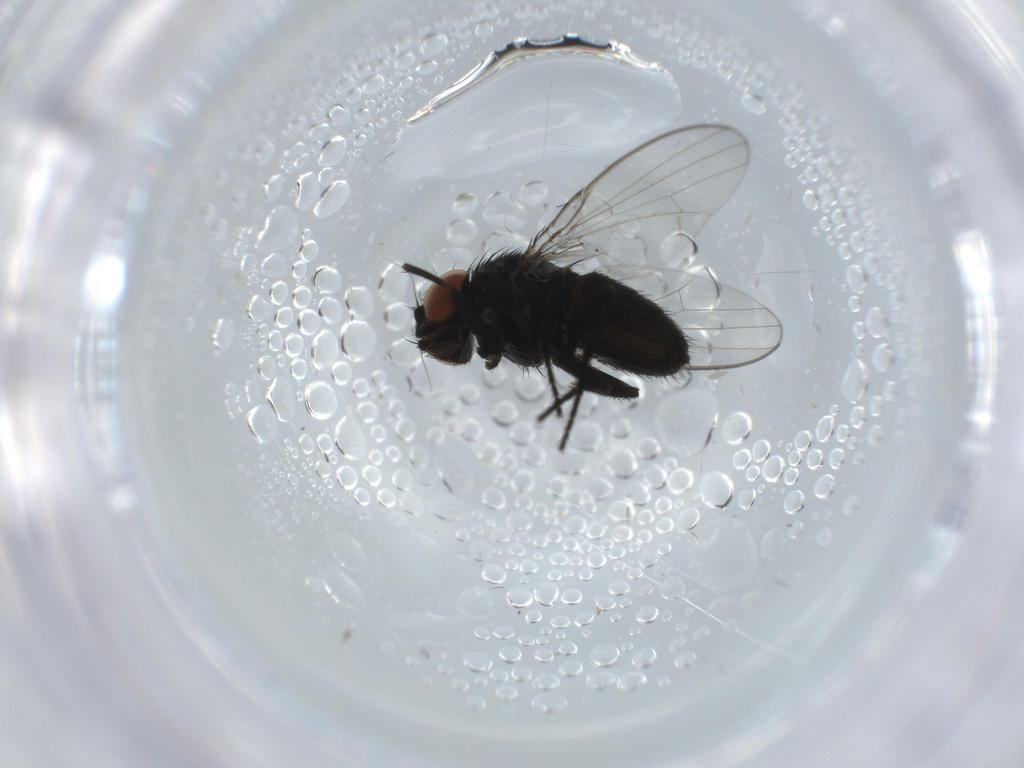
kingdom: Animalia
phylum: Arthropoda
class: Insecta
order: Diptera
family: Milichiidae
